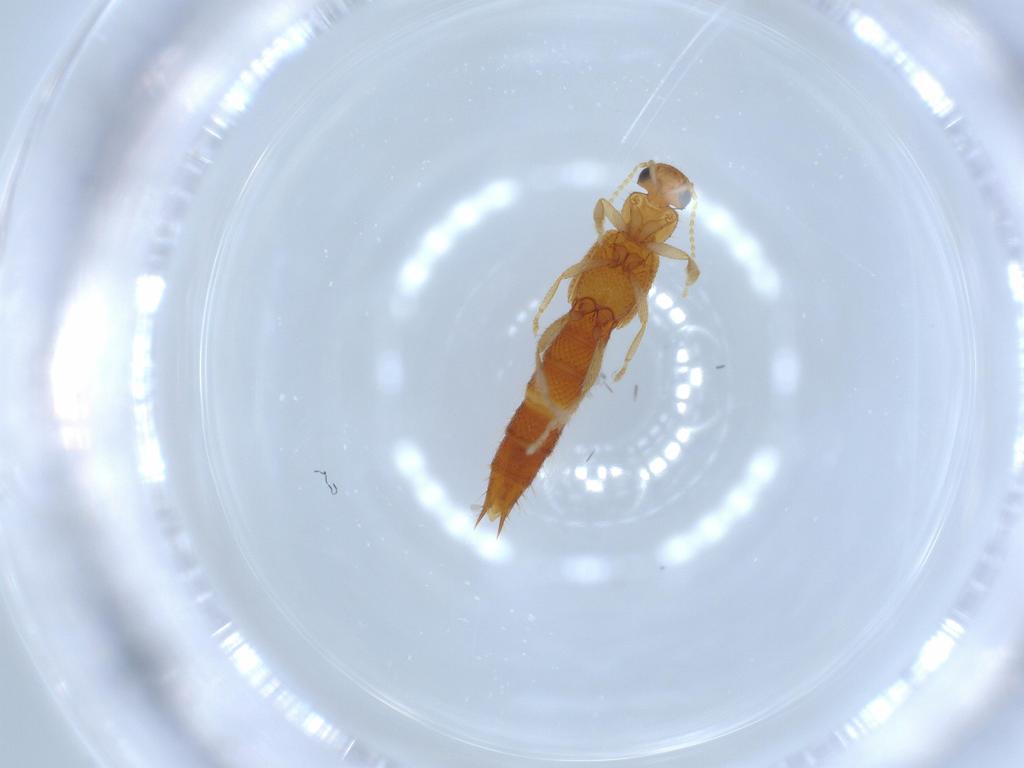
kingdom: Animalia
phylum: Arthropoda
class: Insecta
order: Coleoptera
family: Staphylinidae
